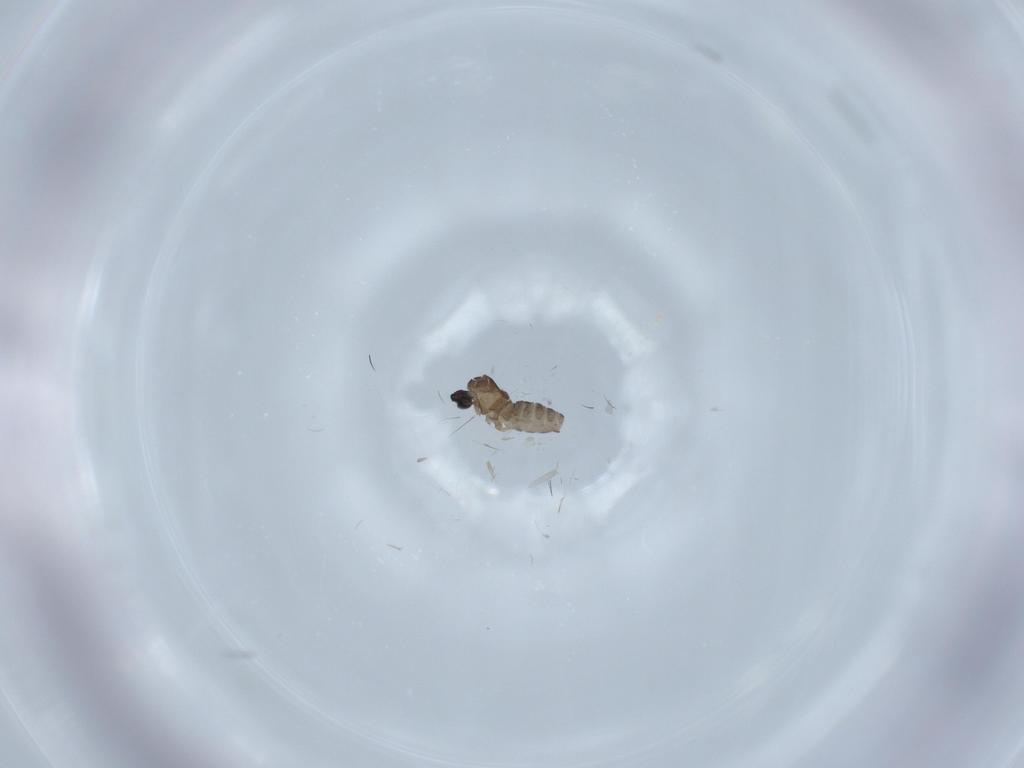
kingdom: Animalia
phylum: Arthropoda
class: Insecta
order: Diptera
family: Cecidomyiidae
